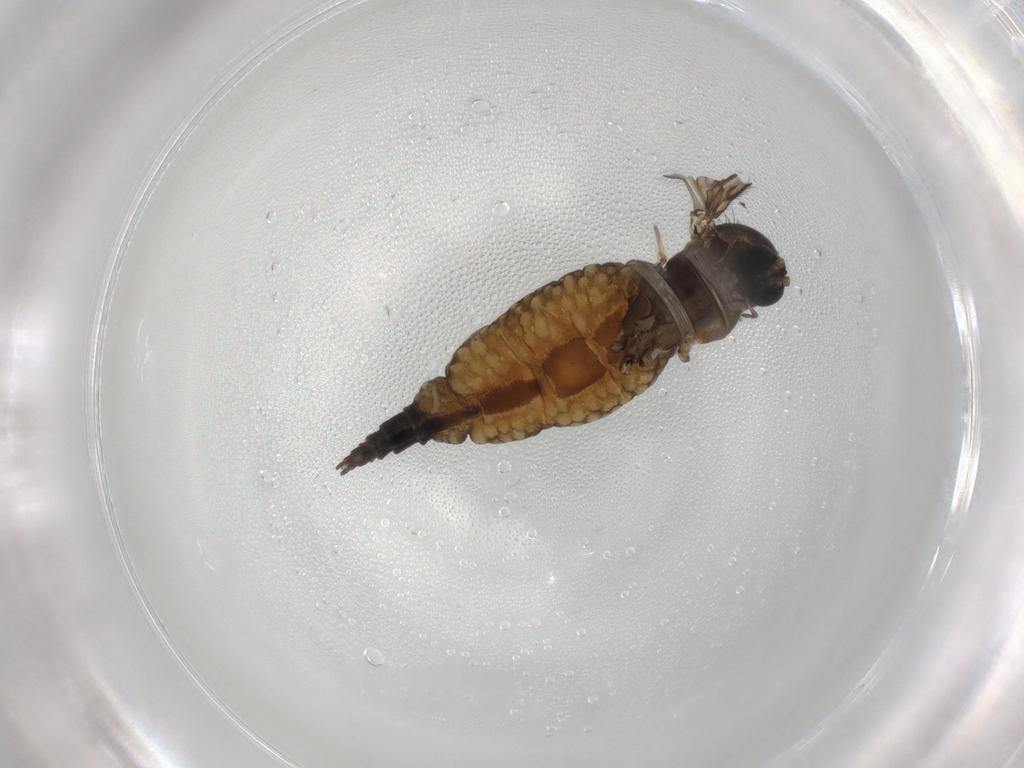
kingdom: Animalia
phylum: Arthropoda
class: Insecta
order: Diptera
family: Sciaridae
